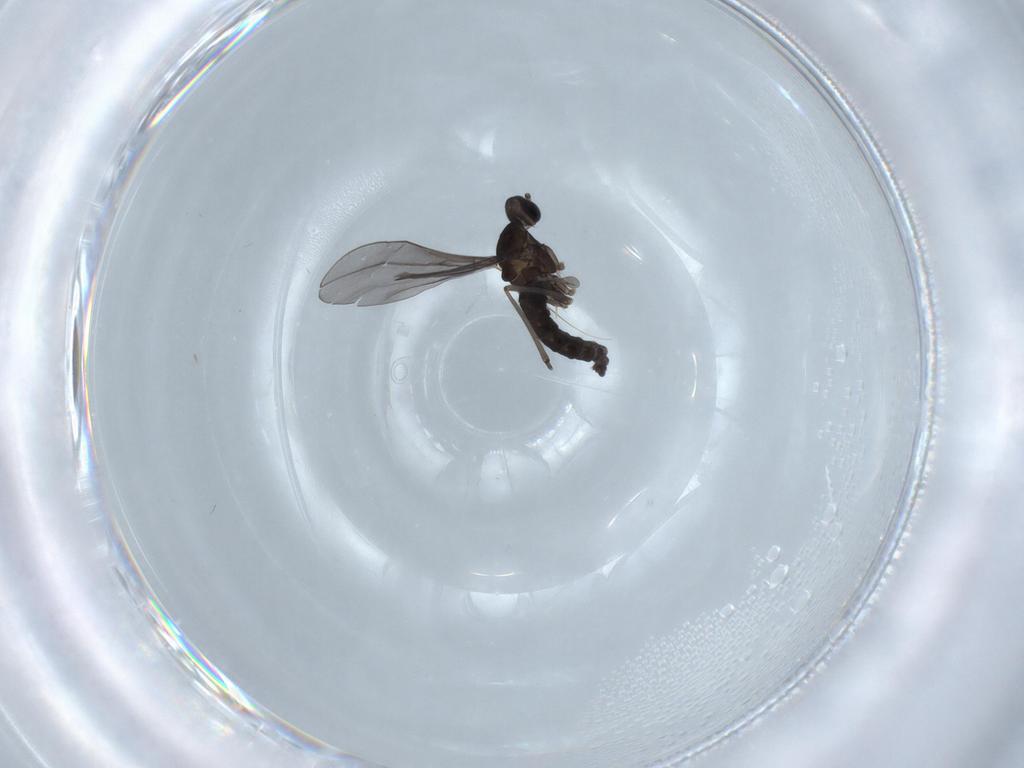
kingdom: Animalia
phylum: Arthropoda
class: Insecta
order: Diptera
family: Cecidomyiidae
